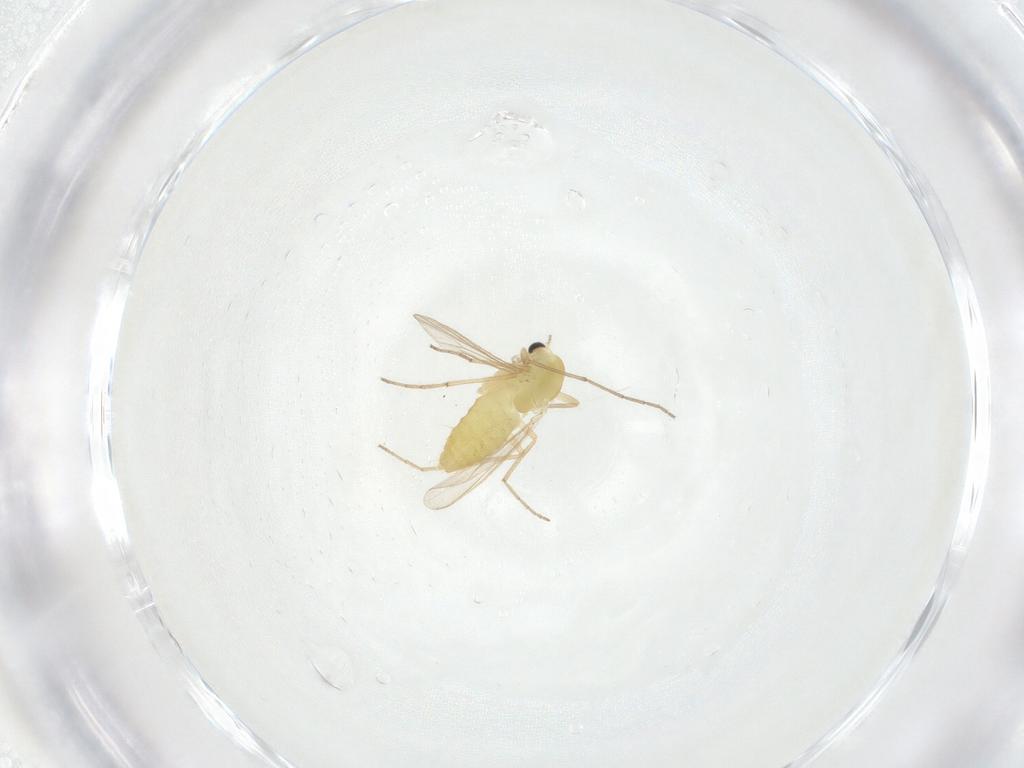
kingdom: Animalia
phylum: Arthropoda
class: Insecta
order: Diptera
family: Chironomidae
